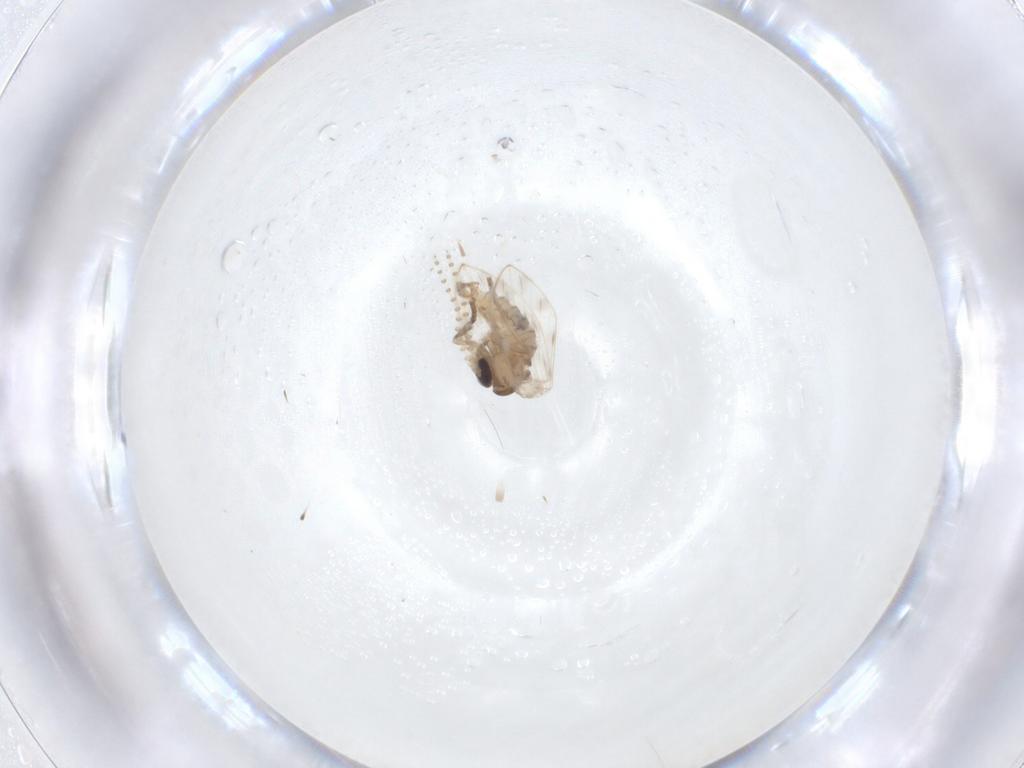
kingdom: Animalia
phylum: Arthropoda
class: Insecta
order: Diptera
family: Psychodidae
